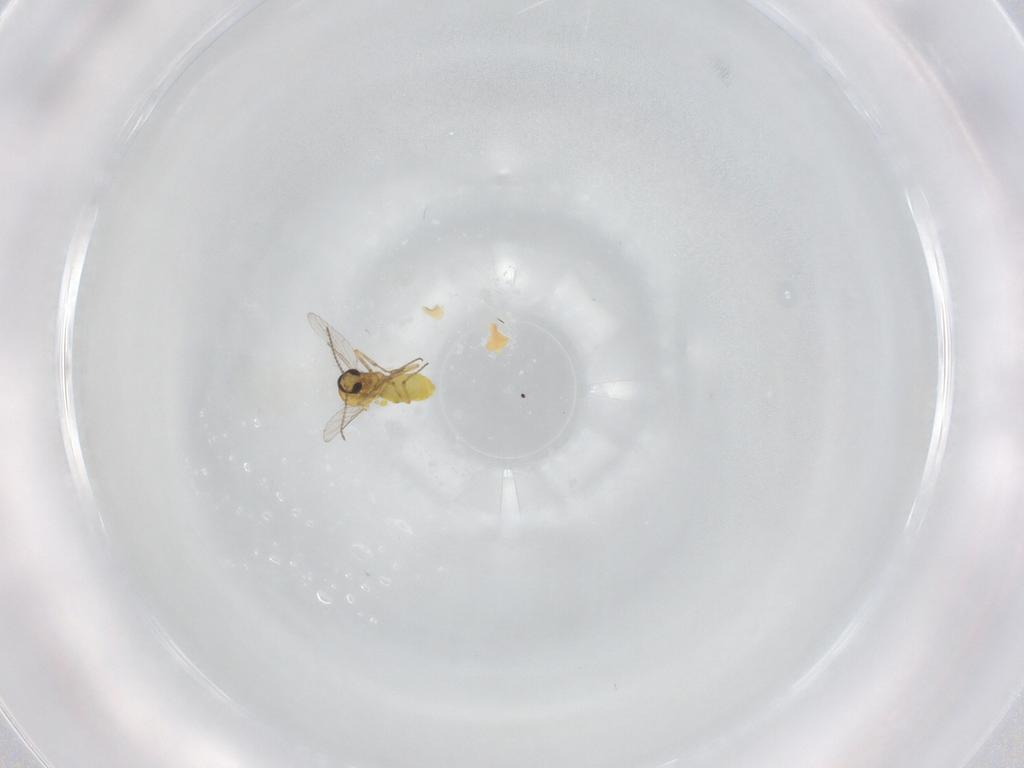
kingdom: Animalia
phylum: Arthropoda
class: Insecta
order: Diptera
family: Ceratopogonidae
